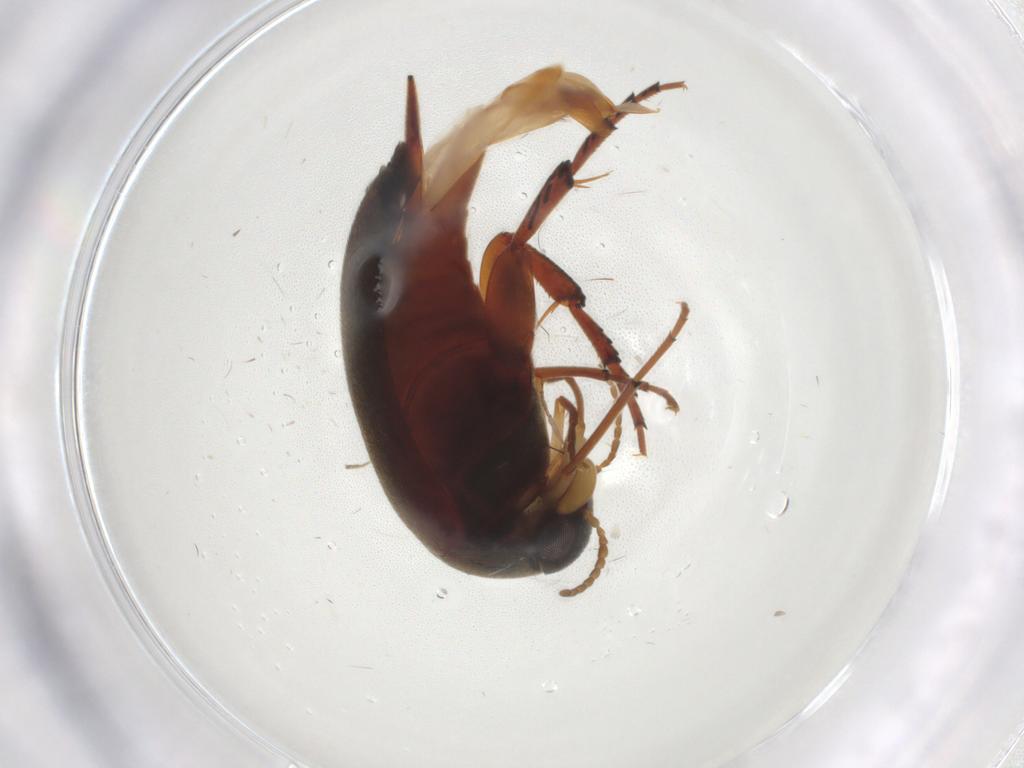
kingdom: Animalia
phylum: Arthropoda
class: Insecta
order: Coleoptera
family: Mordellidae
